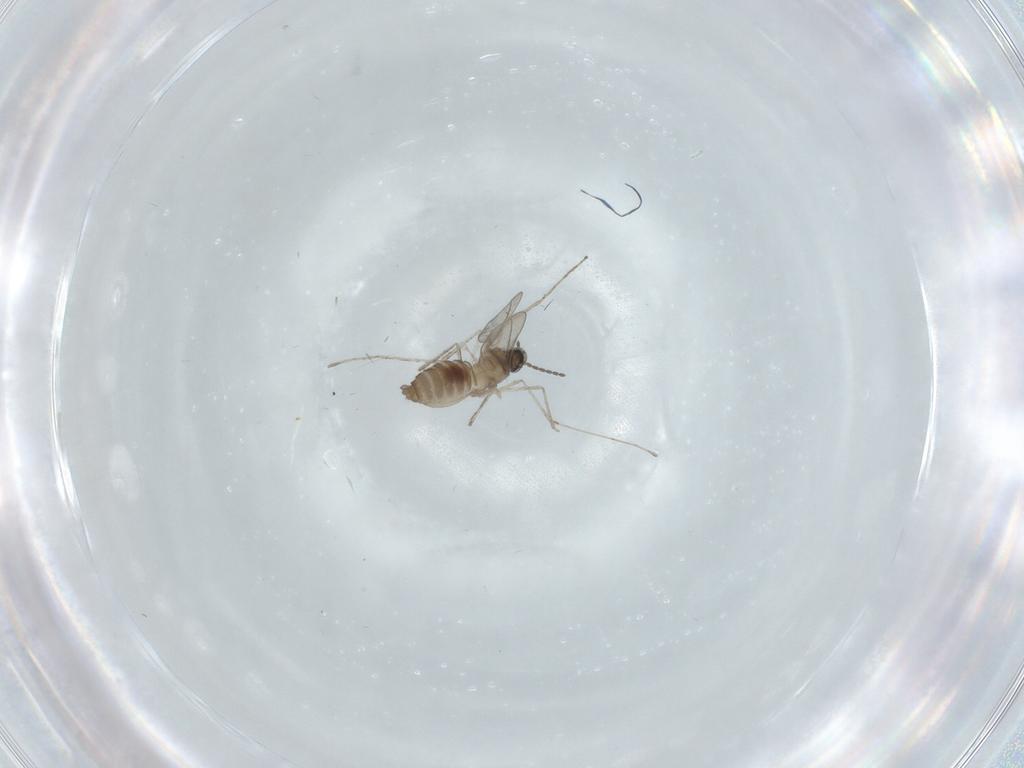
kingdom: Animalia
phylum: Arthropoda
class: Insecta
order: Diptera
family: Cecidomyiidae
